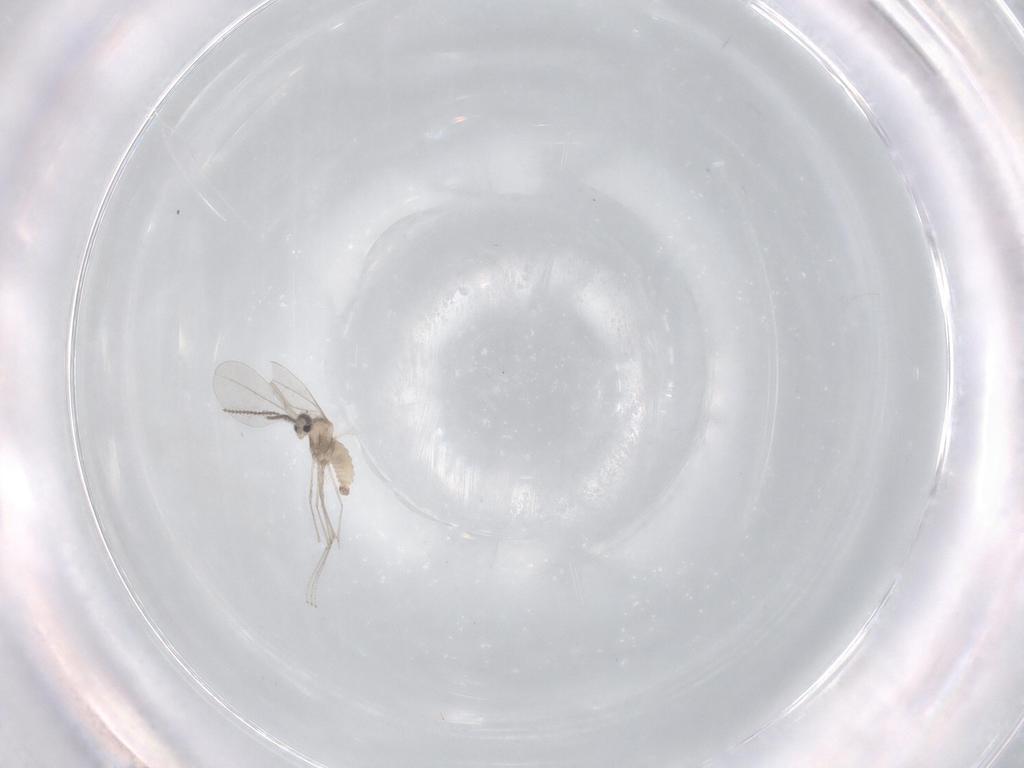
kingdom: Animalia
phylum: Arthropoda
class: Insecta
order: Diptera
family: Cecidomyiidae
